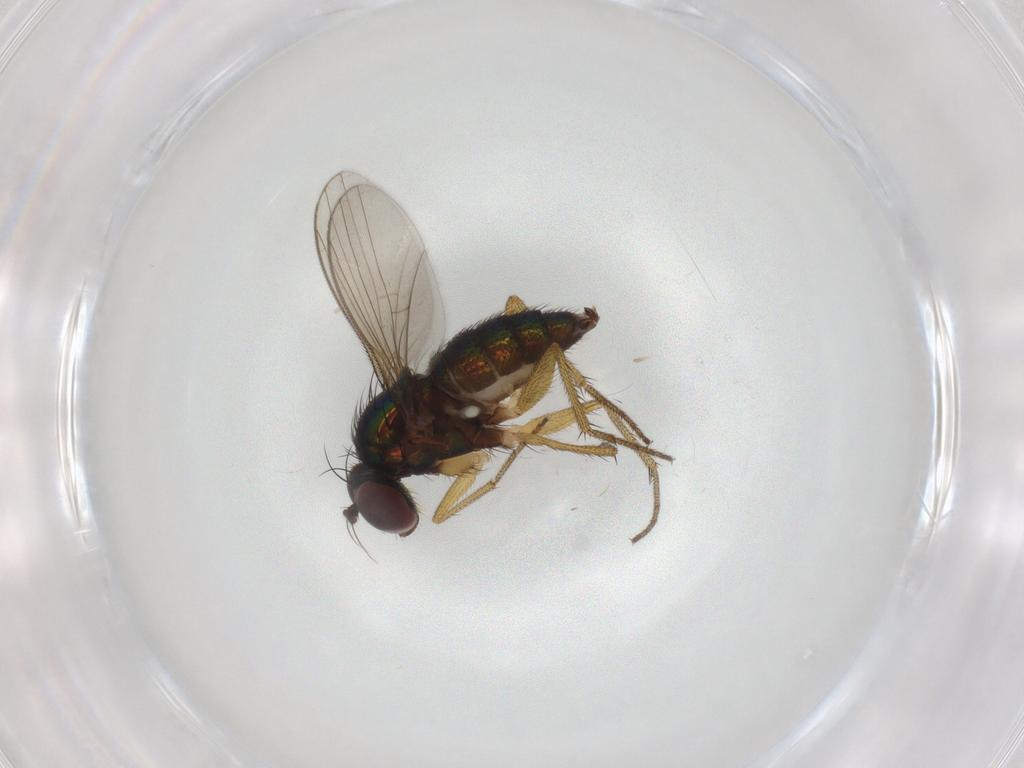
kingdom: Animalia
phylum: Arthropoda
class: Insecta
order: Diptera
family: Dolichopodidae
